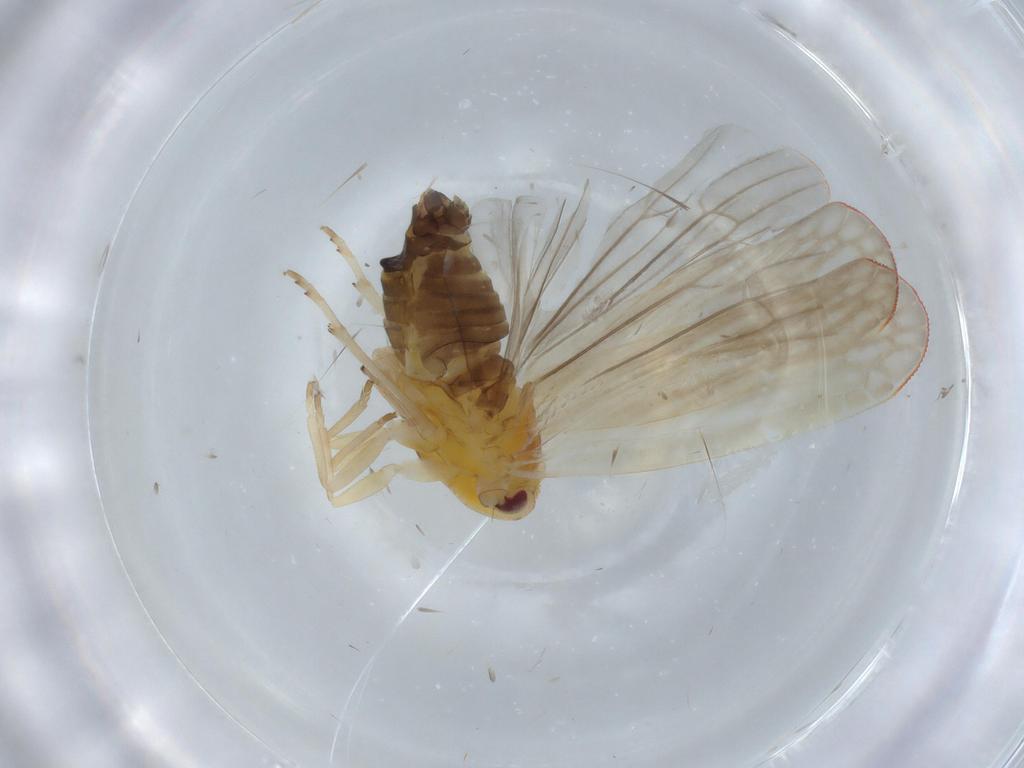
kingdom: Animalia
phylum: Arthropoda
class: Insecta
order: Hemiptera
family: Derbidae
